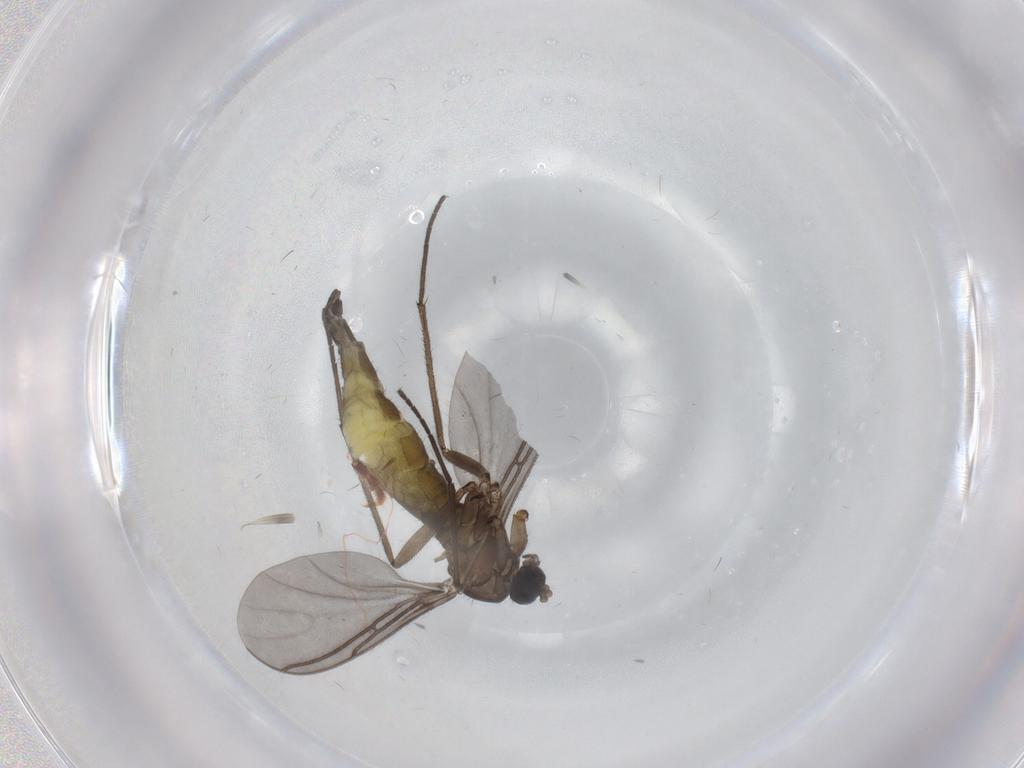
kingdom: Animalia
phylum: Arthropoda
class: Insecta
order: Diptera
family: Sciaridae
